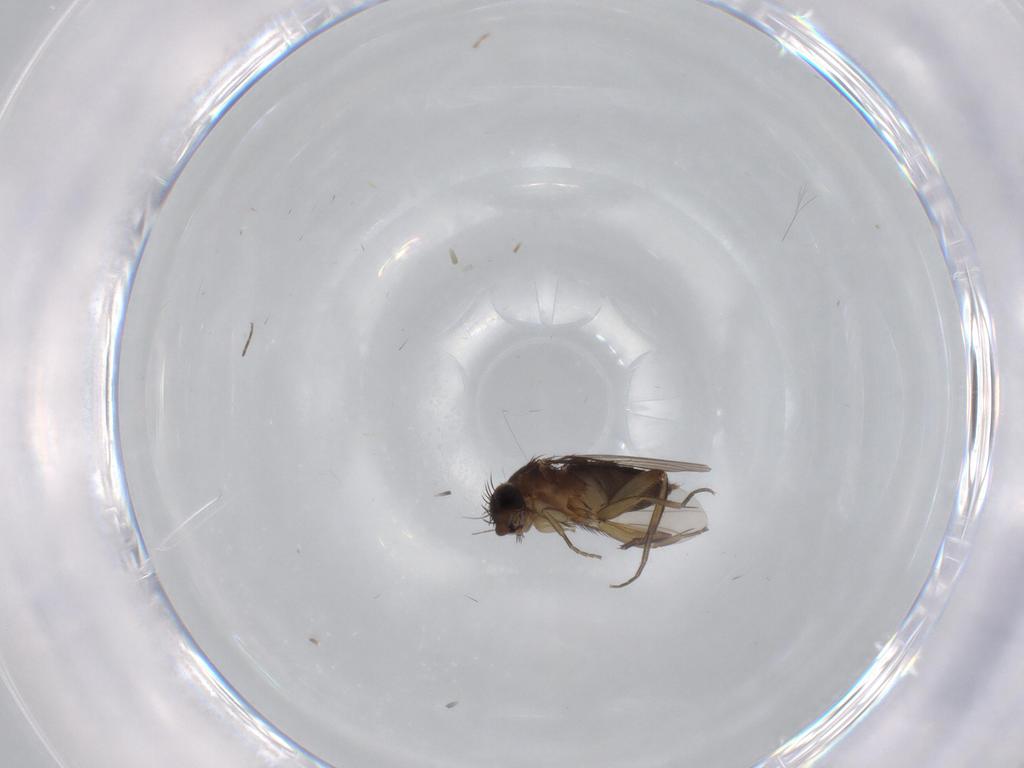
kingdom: Animalia
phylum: Arthropoda
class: Insecta
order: Diptera
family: Phoridae
